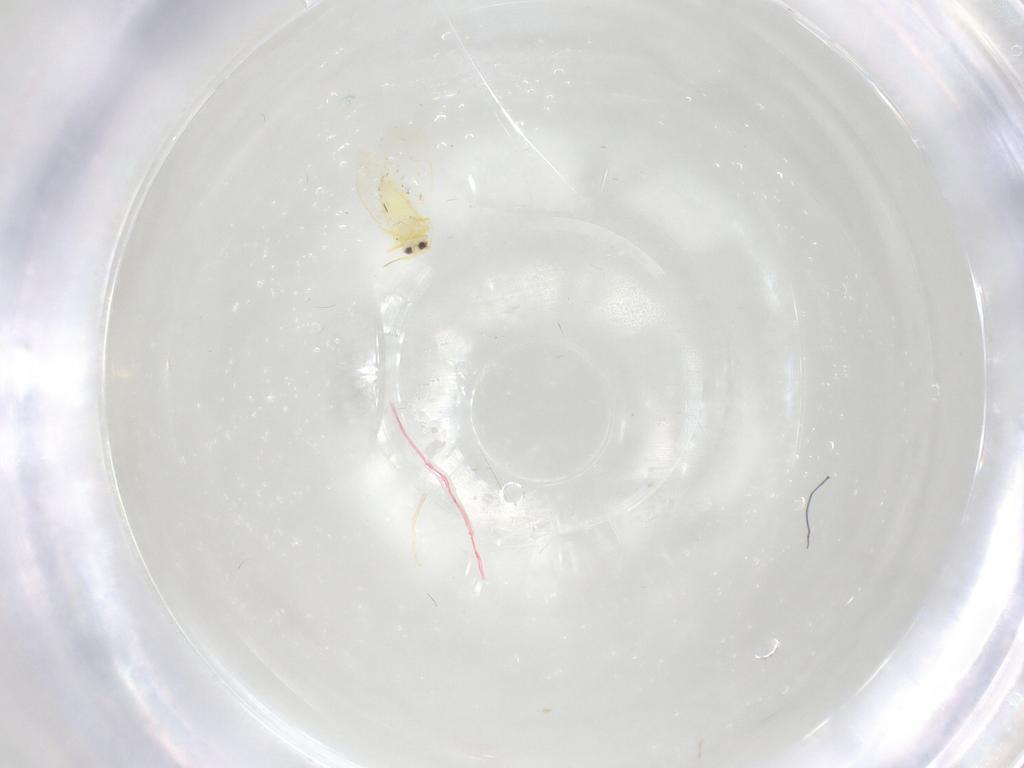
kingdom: Animalia
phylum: Arthropoda
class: Insecta
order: Hemiptera
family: Aleyrodidae
